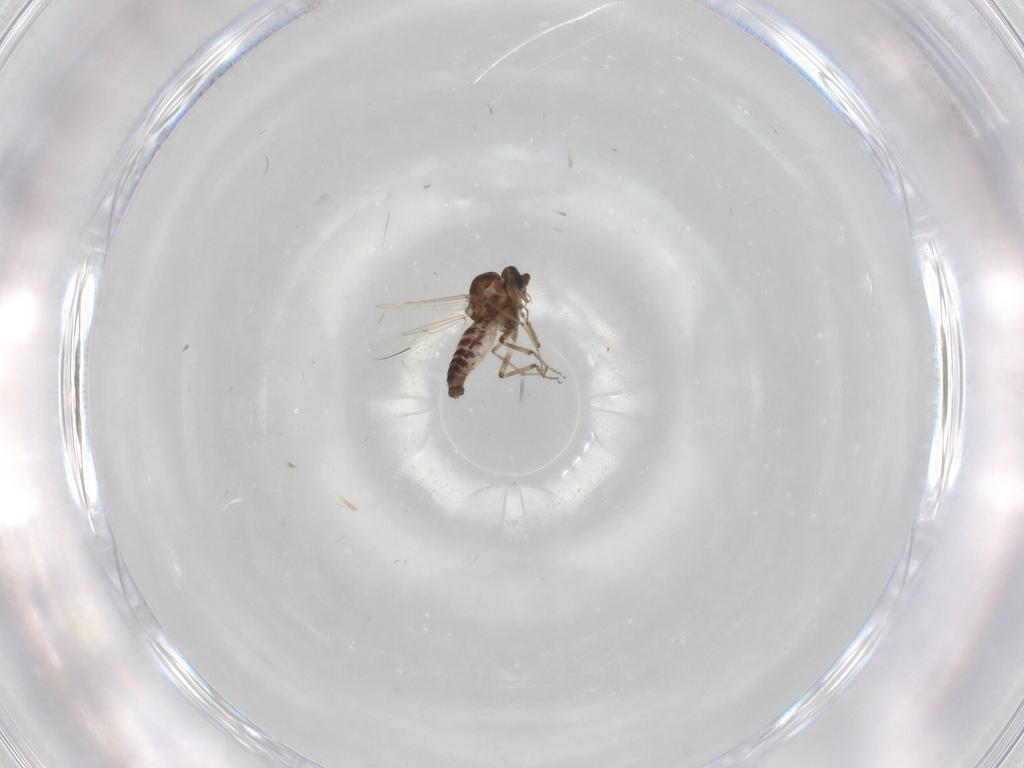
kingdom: Animalia
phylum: Arthropoda
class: Insecta
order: Diptera
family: Ceratopogonidae
